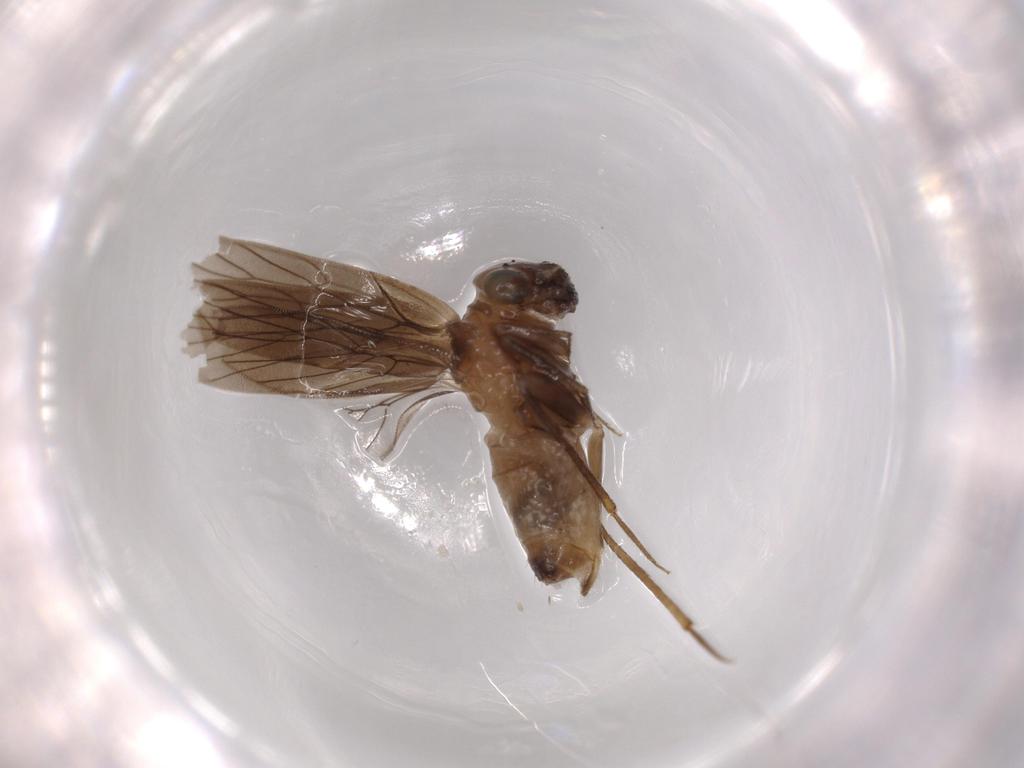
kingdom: Animalia
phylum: Arthropoda
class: Insecta
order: Psocodea
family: Lepidopsocidae
